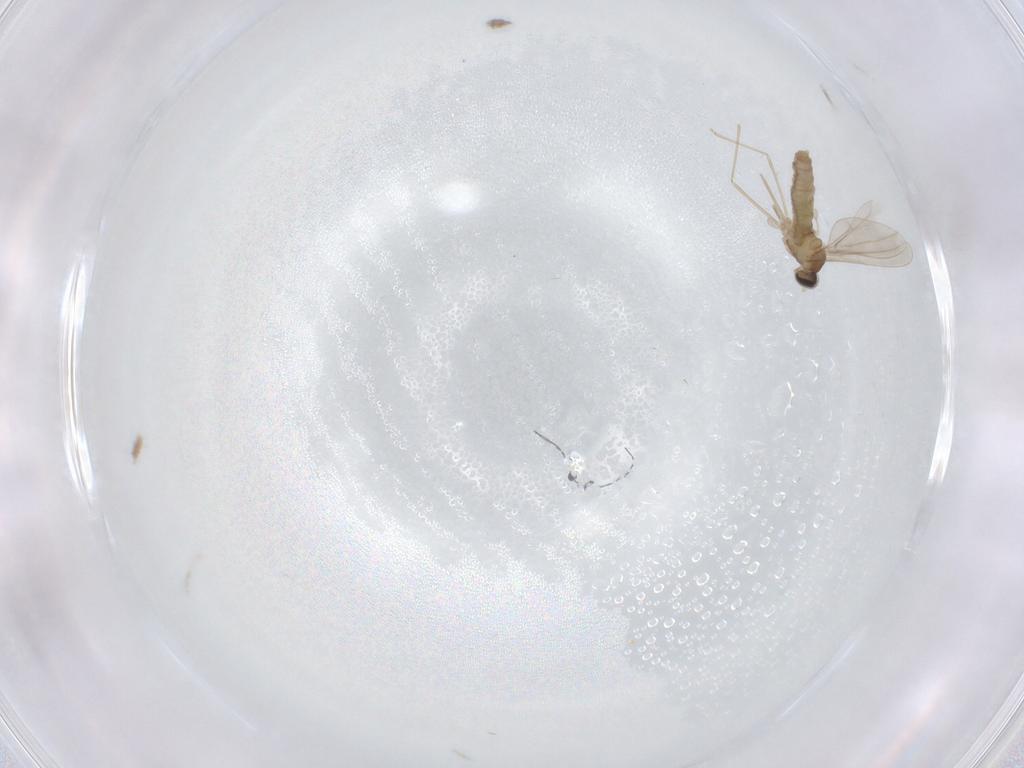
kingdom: Animalia
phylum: Arthropoda
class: Insecta
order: Diptera
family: Cecidomyiidae
